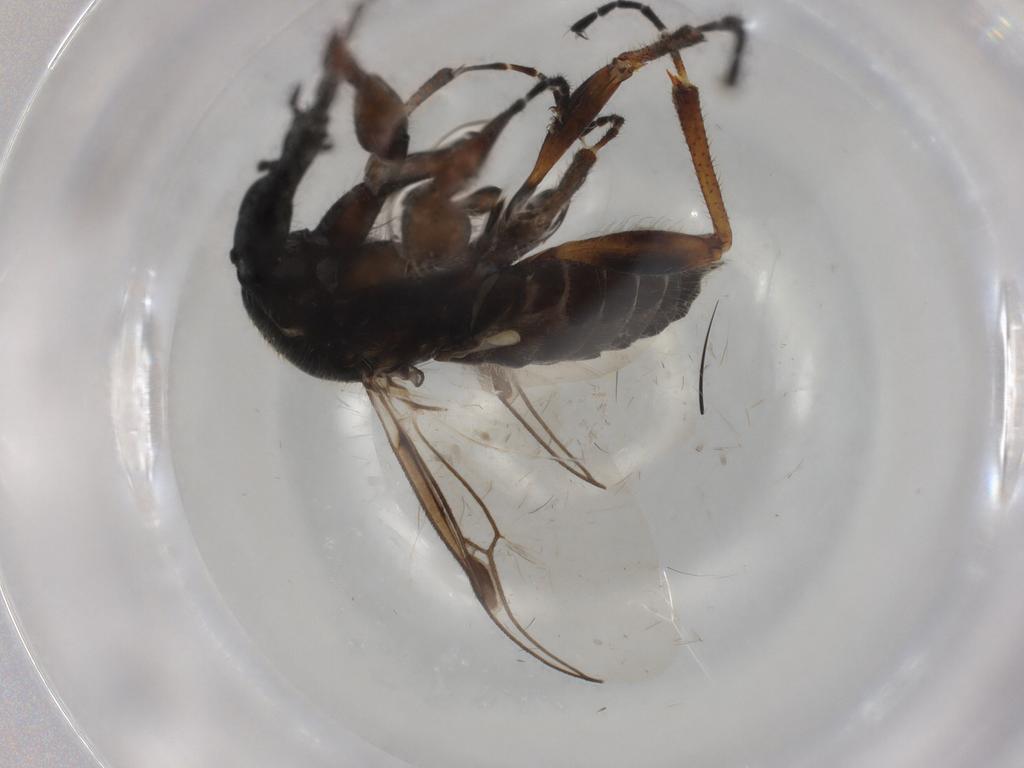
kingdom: Animalia
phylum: Arthropoda
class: Insecta
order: Diptera
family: Bibionidae
